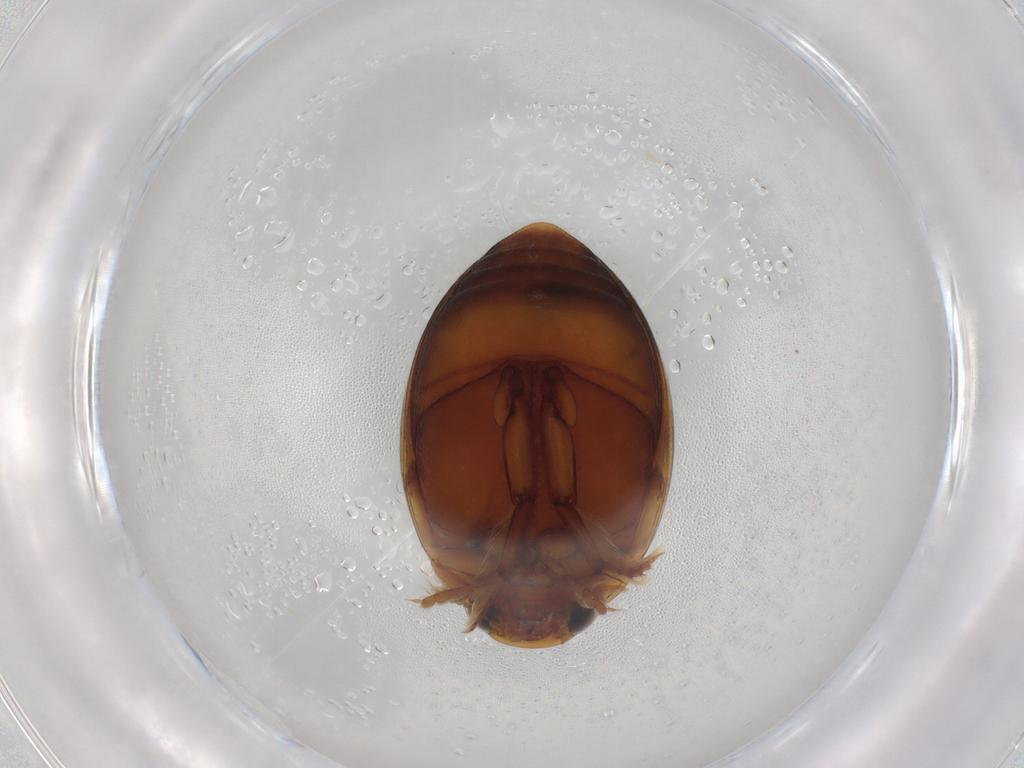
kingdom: Animalia
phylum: Arthropoda
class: Insecta
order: Coleoptera
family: Dytiscidae
